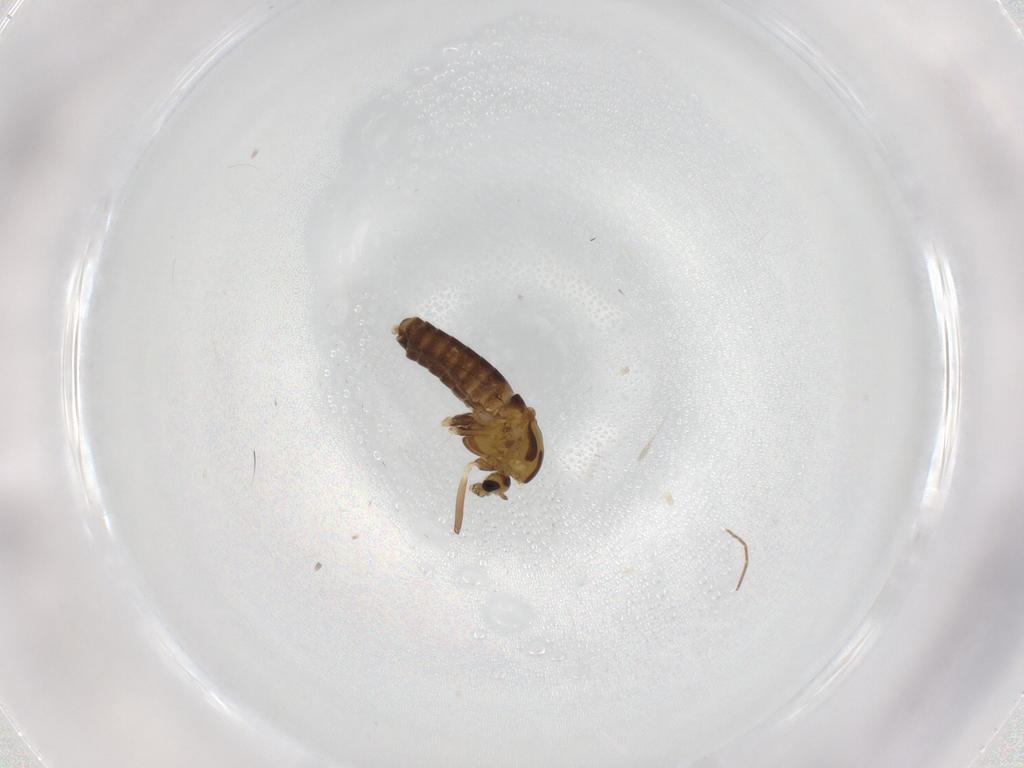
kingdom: Animalia
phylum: Arthropoda
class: Insecta
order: Diptera
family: Chironomidae
